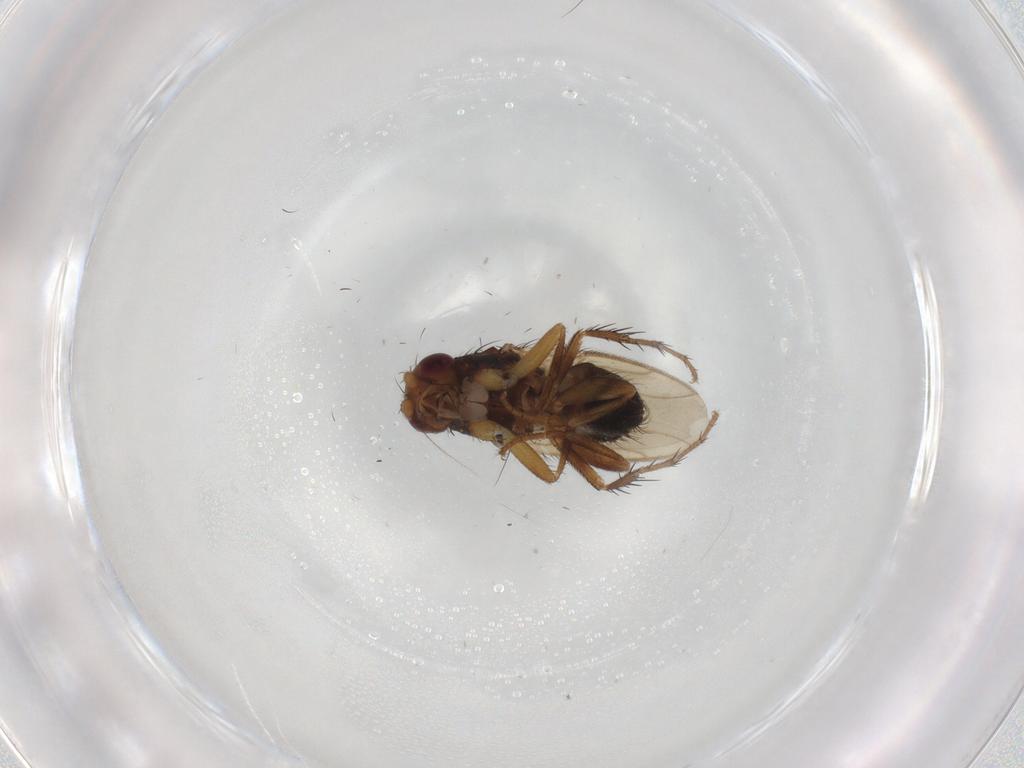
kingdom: Animalia
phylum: Arthropoda
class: Insecta
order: Diptera
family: Sphaeroceridae
